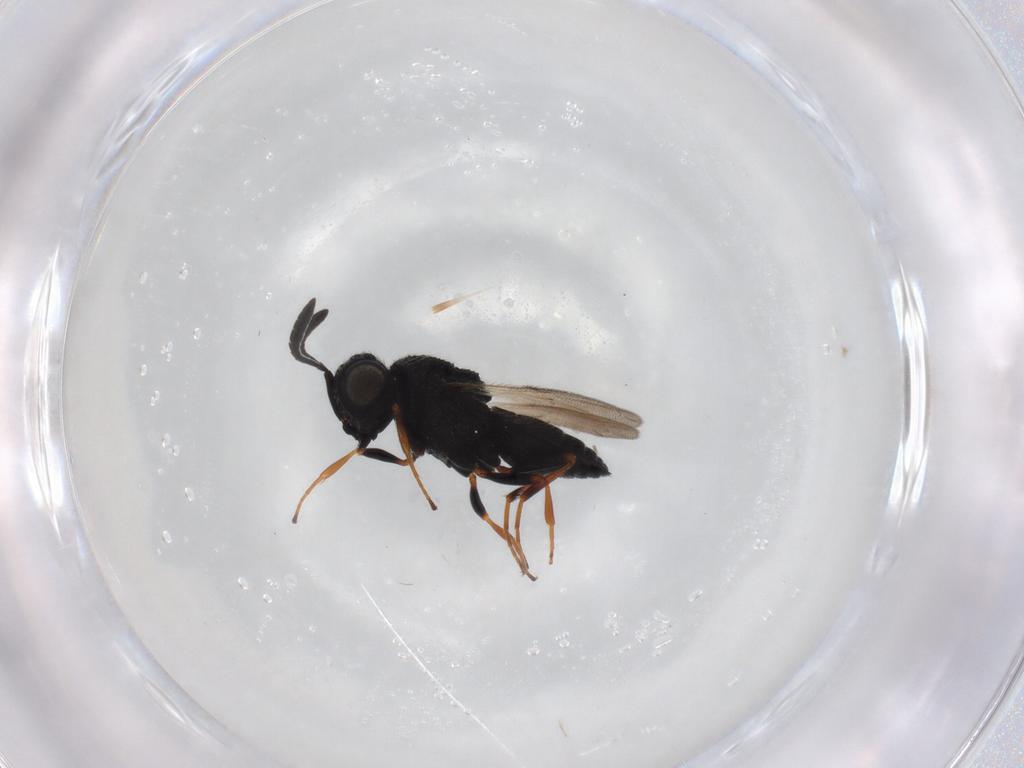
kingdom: Animalia
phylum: Arthropoda
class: Insecta
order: Hymenoptera
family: Scelionidae
